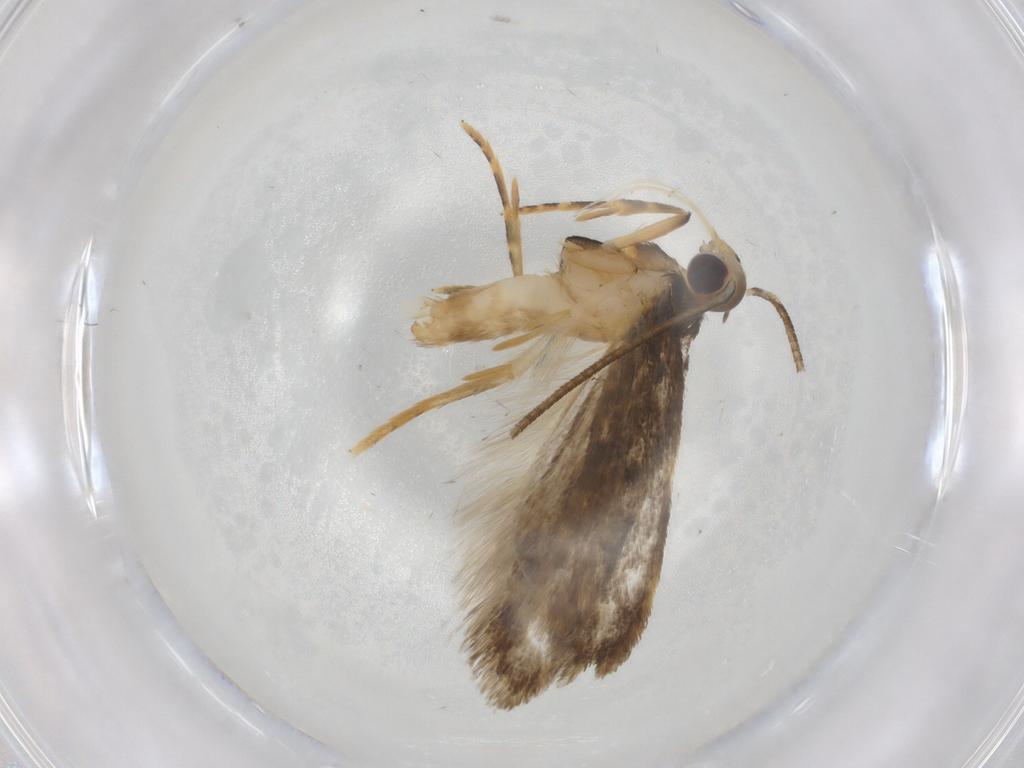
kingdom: Animalia
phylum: Arthropoda
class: Insecta
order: Lepidoptera
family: Autostichidae
